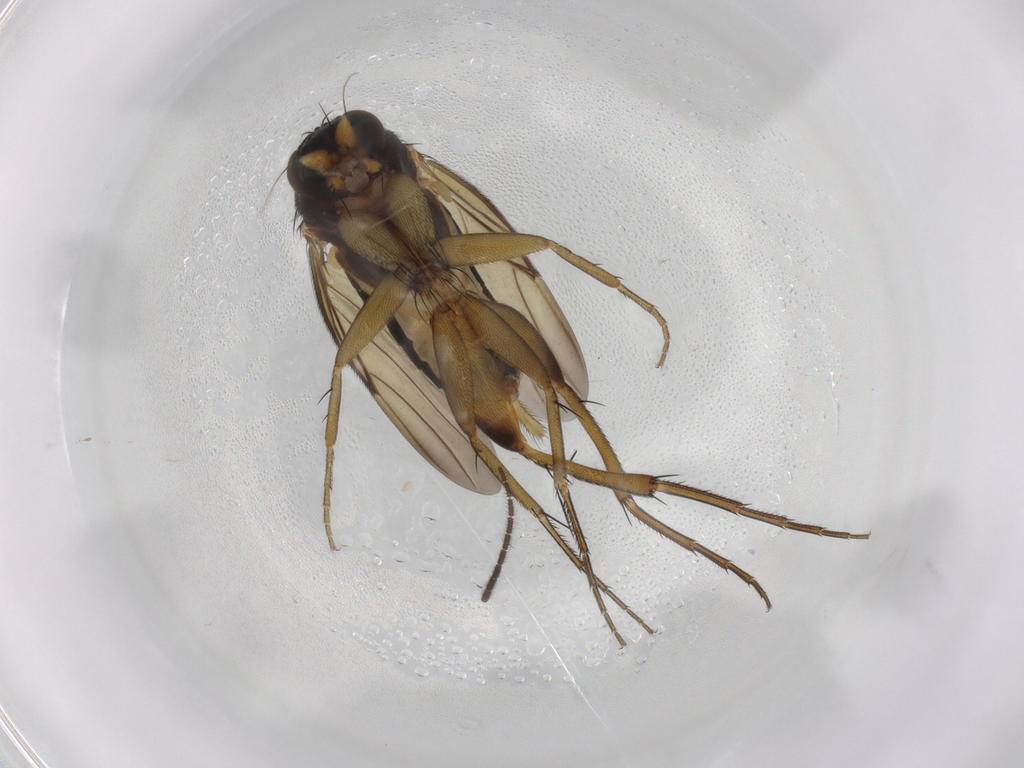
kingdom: Animalia
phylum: Arthropoda
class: Insecta
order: Diptera
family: Phoridae
